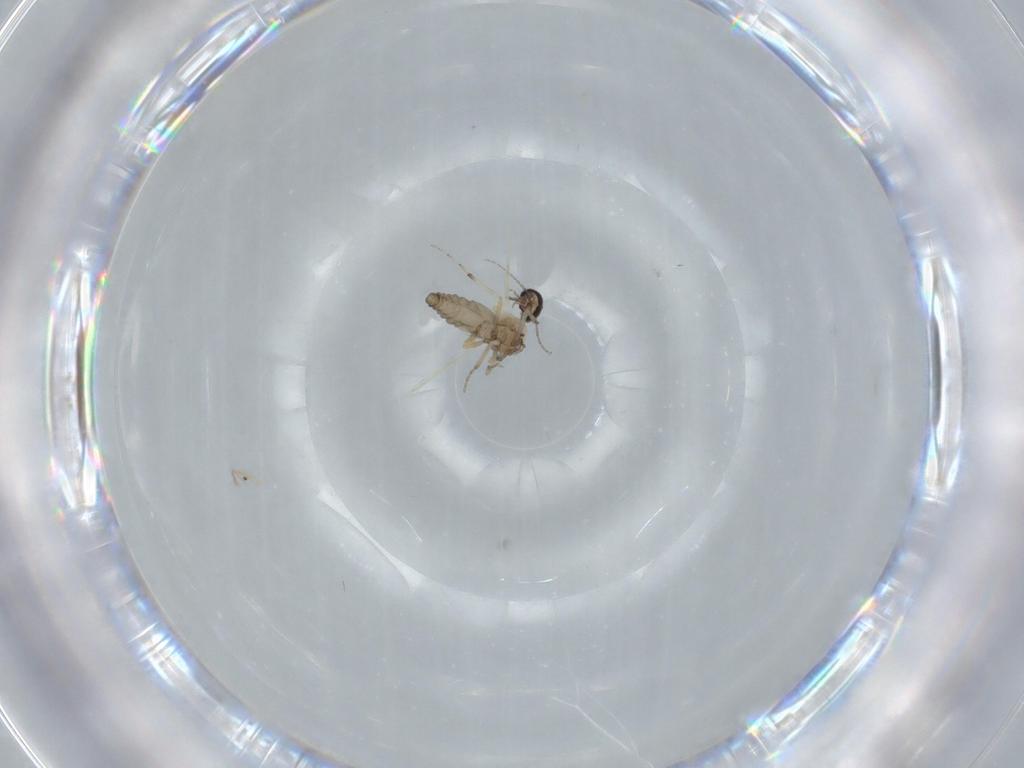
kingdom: Animalia
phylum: Arthropoda
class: Insecta
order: Diptera
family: Ceratopogonidae
